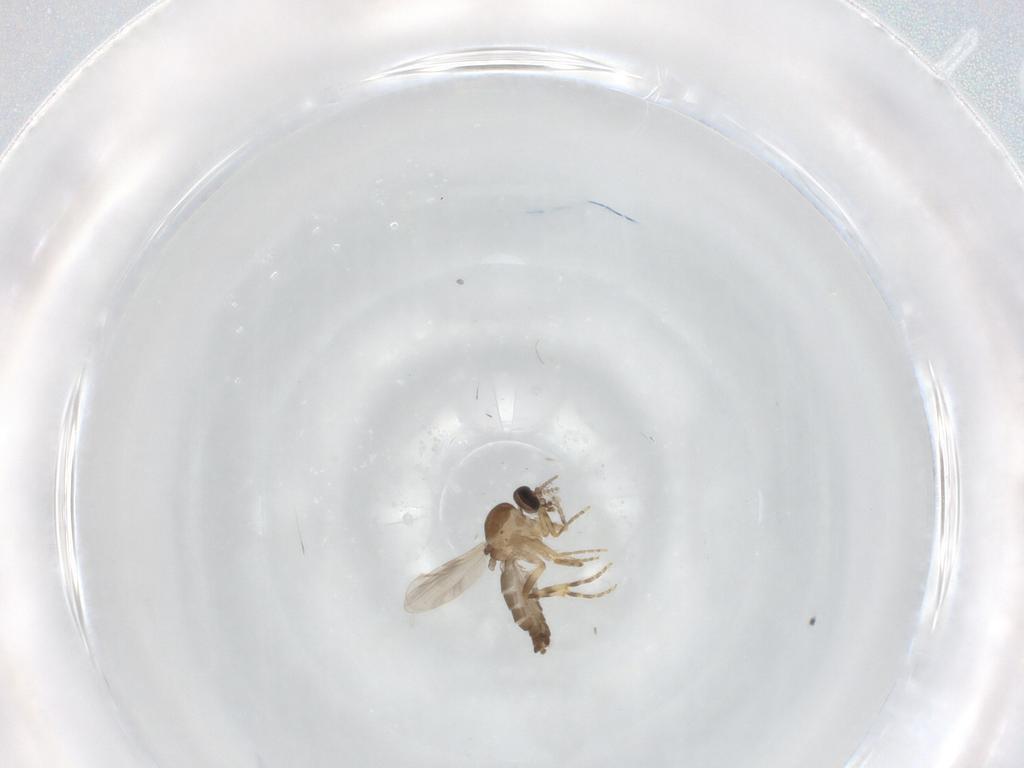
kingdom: Animalia
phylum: Arthropoda
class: Insecta
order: Diptera
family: Ceratopogonidae
